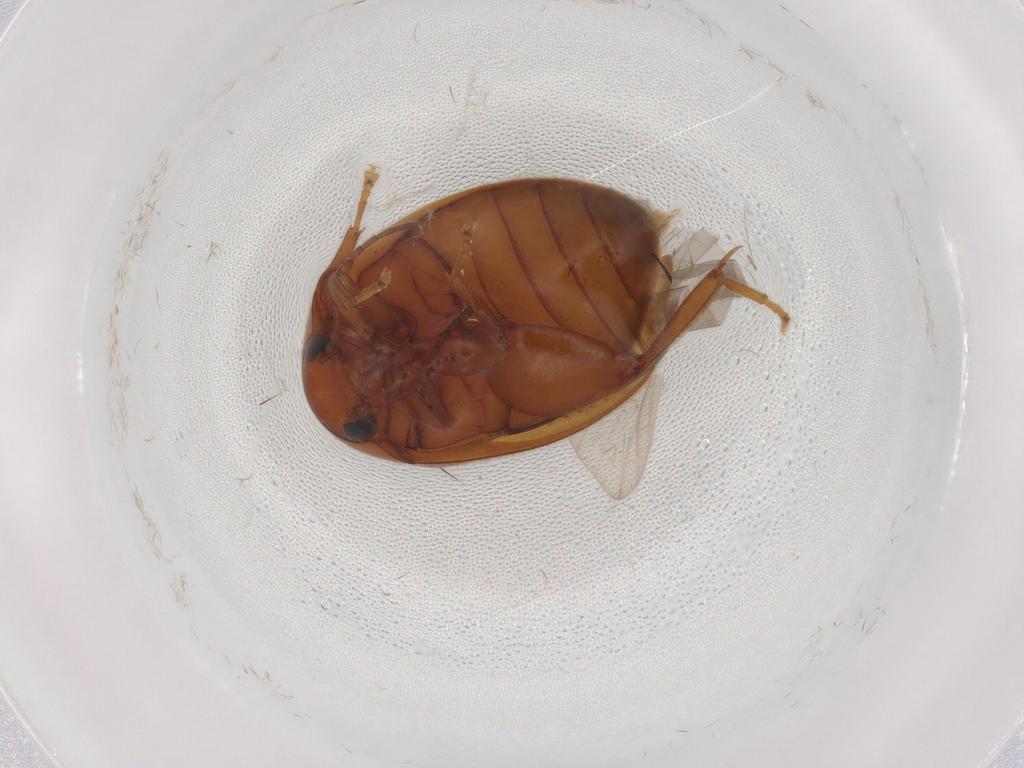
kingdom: Animalia
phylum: Arthropoda
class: Insecta
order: Coleoptera
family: Scirtidae
